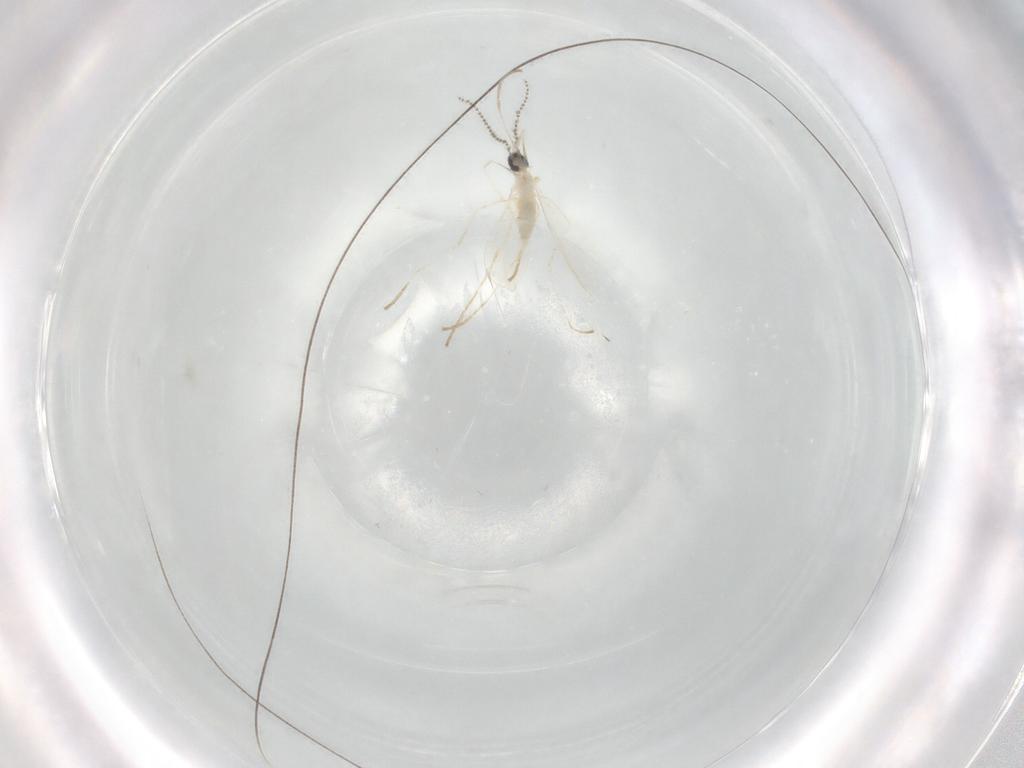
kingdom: Animalia
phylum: Arthropoda
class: Insecta
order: Diptera
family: Cecidomyiidae
